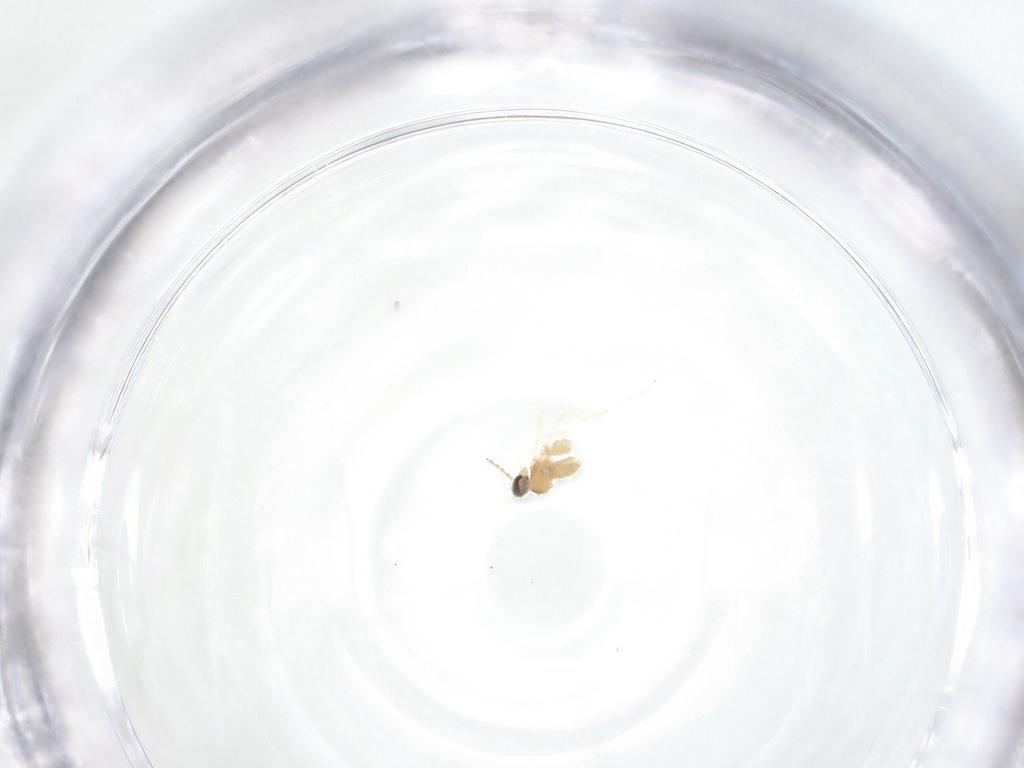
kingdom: Animalia
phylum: Arthropoda
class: Insecta
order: Diptera
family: Cecidomyiidae
